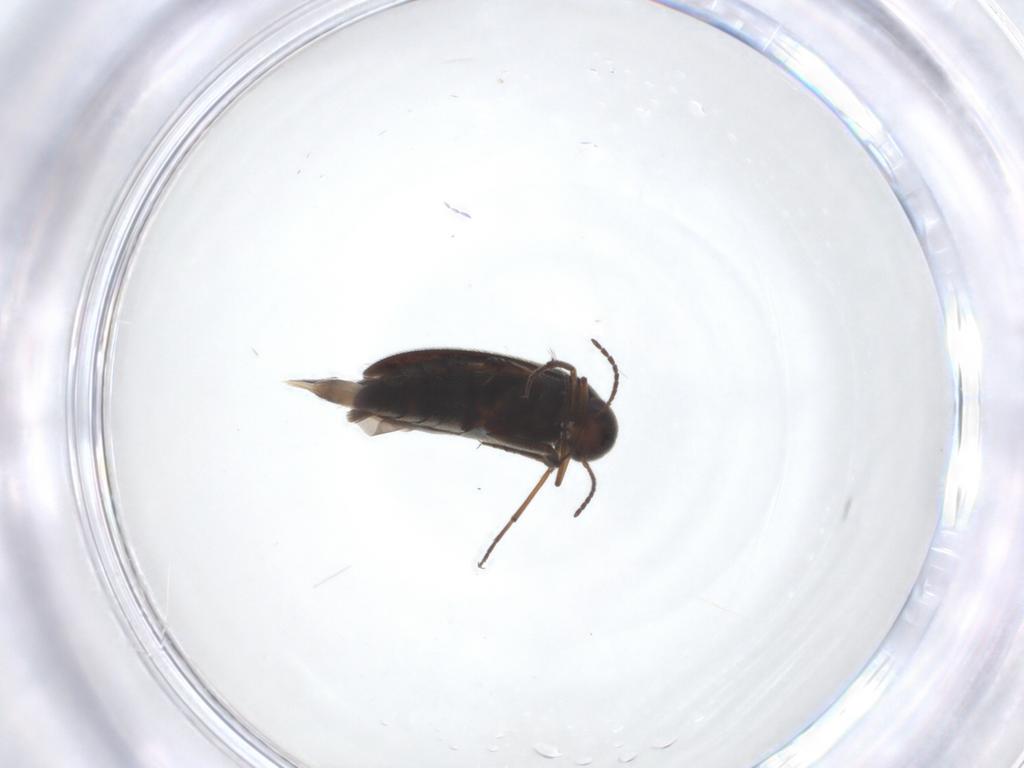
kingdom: Animalia
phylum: Arthropoda
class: Insecta
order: Coleoptera
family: Mordellidae
